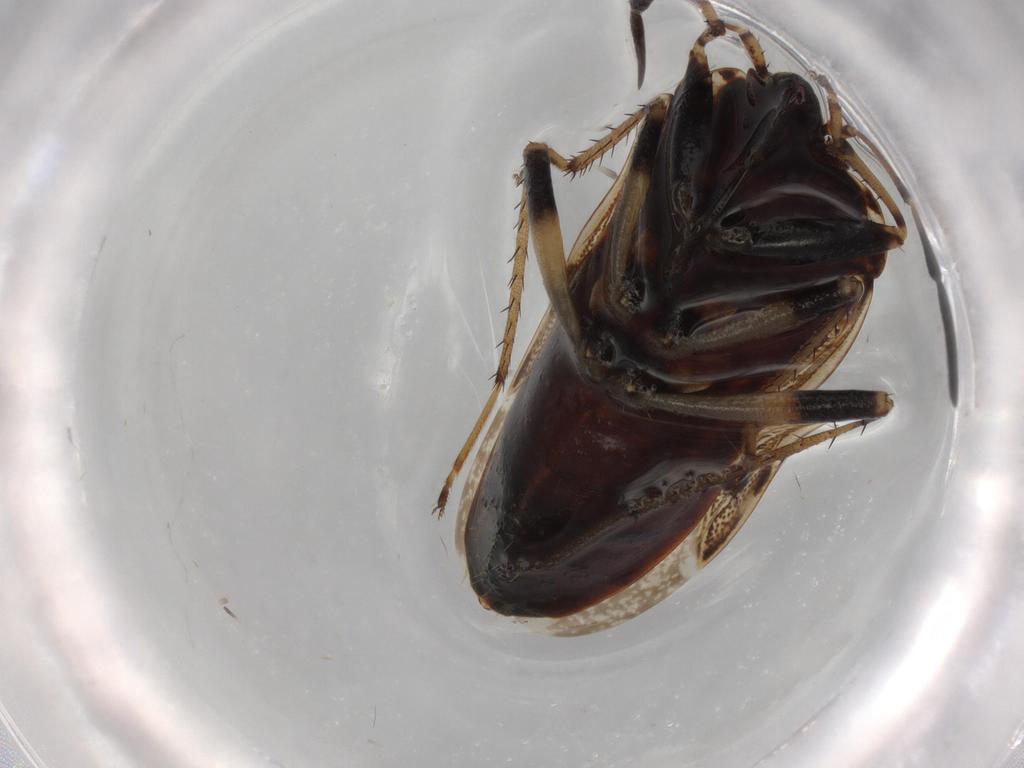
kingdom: Animalia
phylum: Arthropoda
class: Insecta
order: Hemiptera
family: Rhyparochromidae
